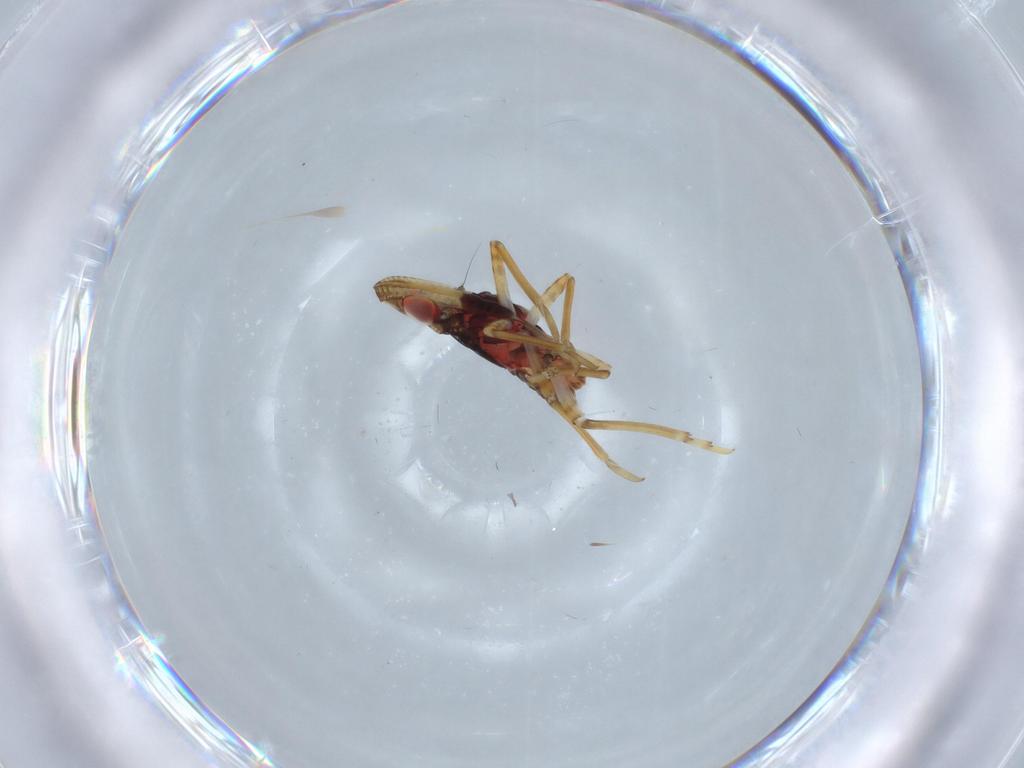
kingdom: Animalia
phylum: Arthropoda
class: Insecta
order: Hemiptera
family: Fulgoroidea_incertae_sedis
